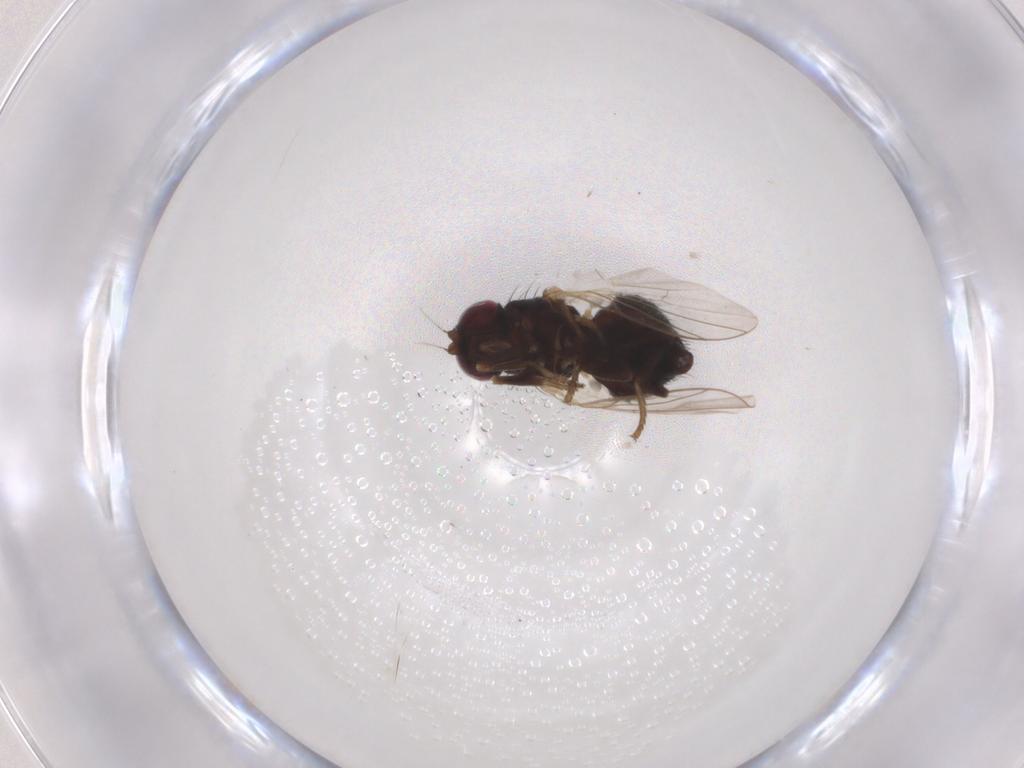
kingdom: Animalia
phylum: Arthropoda
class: Insecta
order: Diptera
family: Agromyzidae
